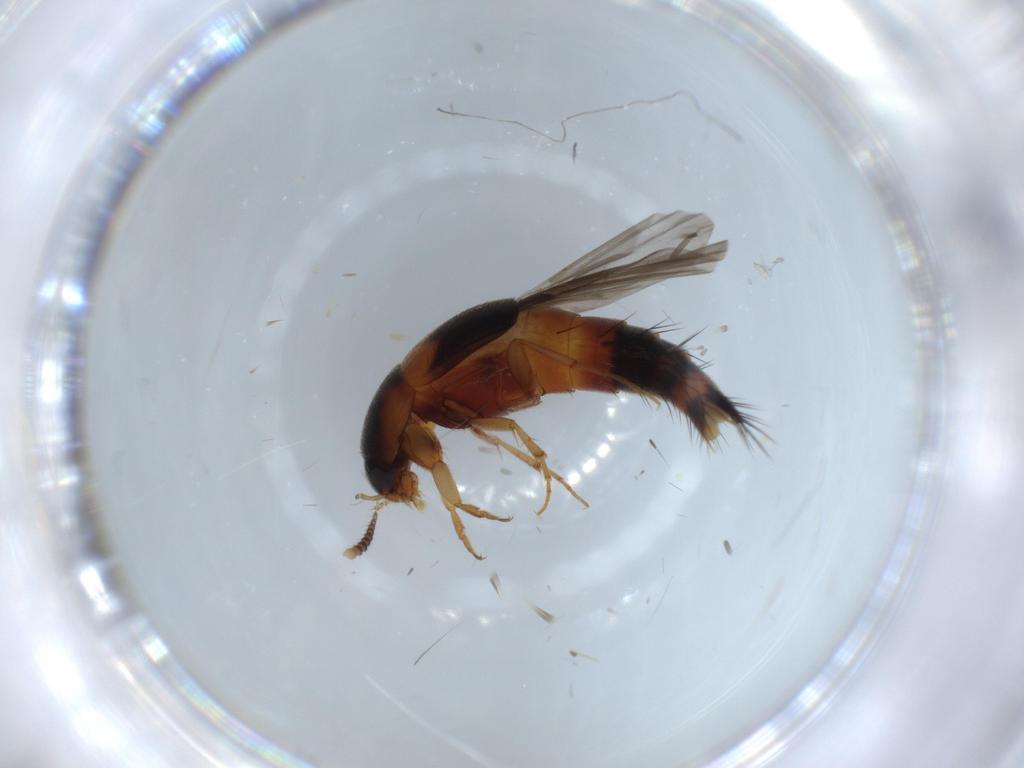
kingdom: Animalia
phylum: Arthropoda
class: Insecta
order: Coleoptera
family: Staphylinidae
